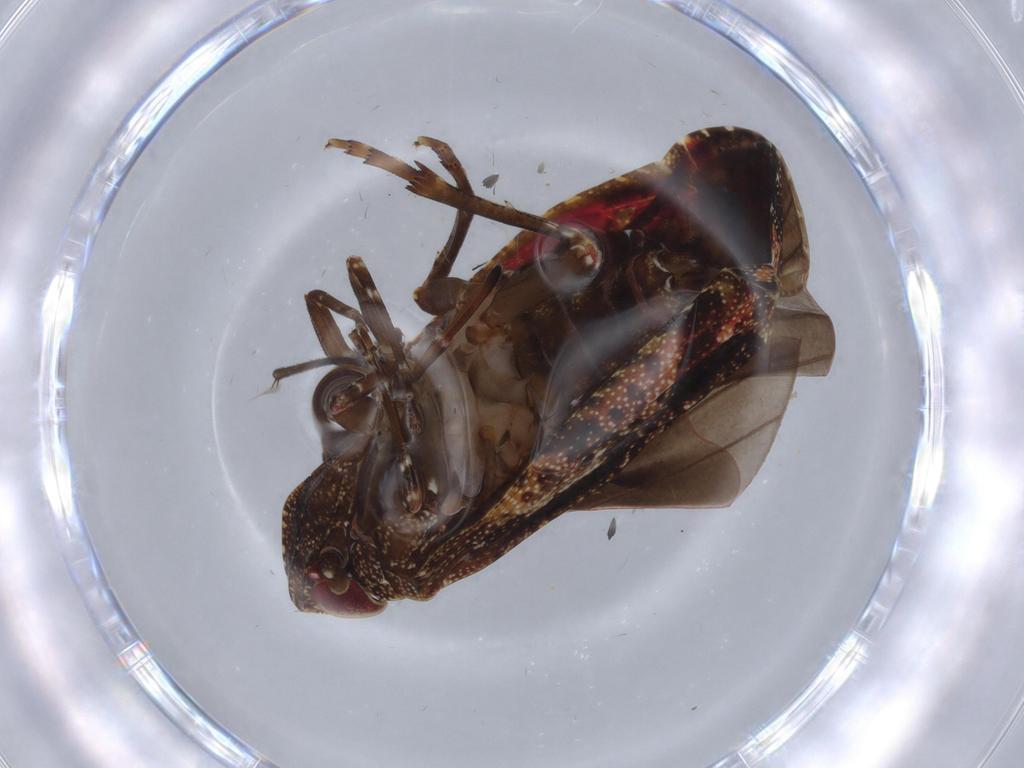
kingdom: Animalia
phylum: Arthropoda
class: Insecta
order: Hemiptera
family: Achilidae
